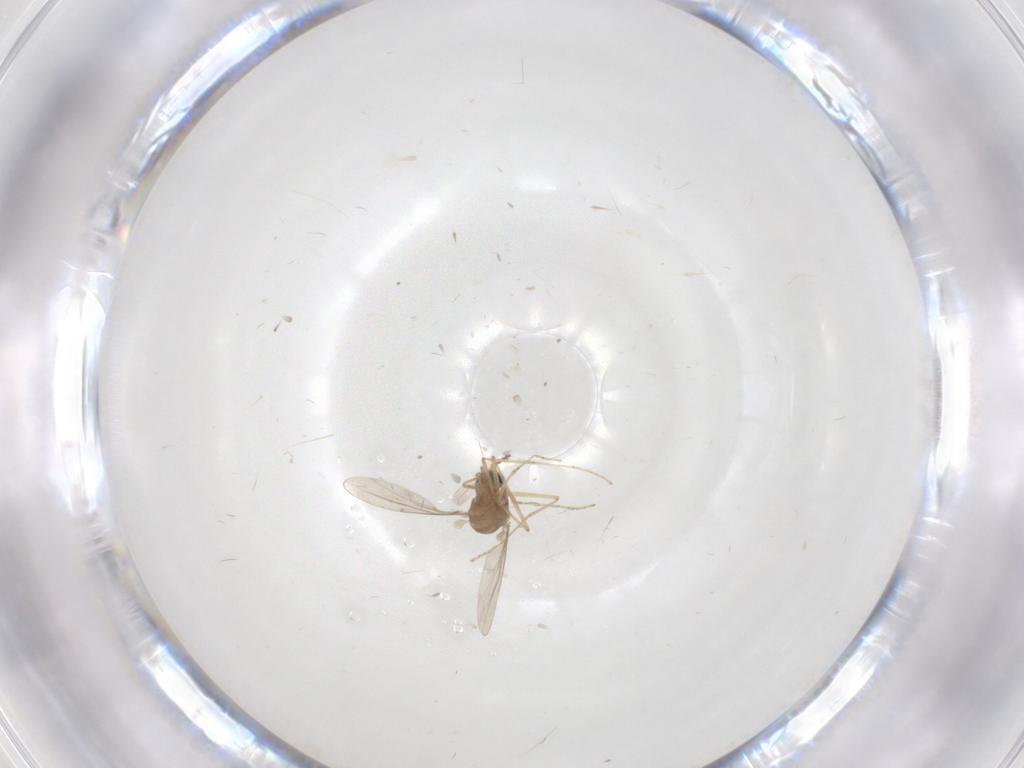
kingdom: Animalia
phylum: Arthropoda
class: Insecta
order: Diptera
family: Cecidomyiidae
